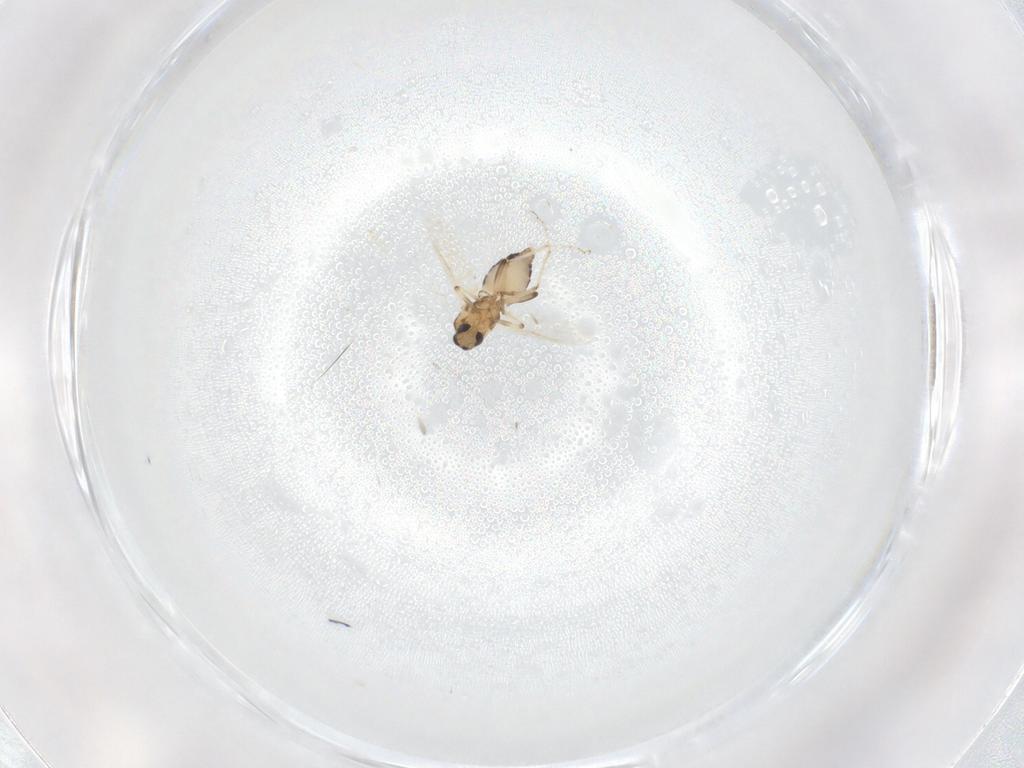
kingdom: Animalia
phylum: Arthropoda
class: Insecta
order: Diptera
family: Ceratopogonidae
